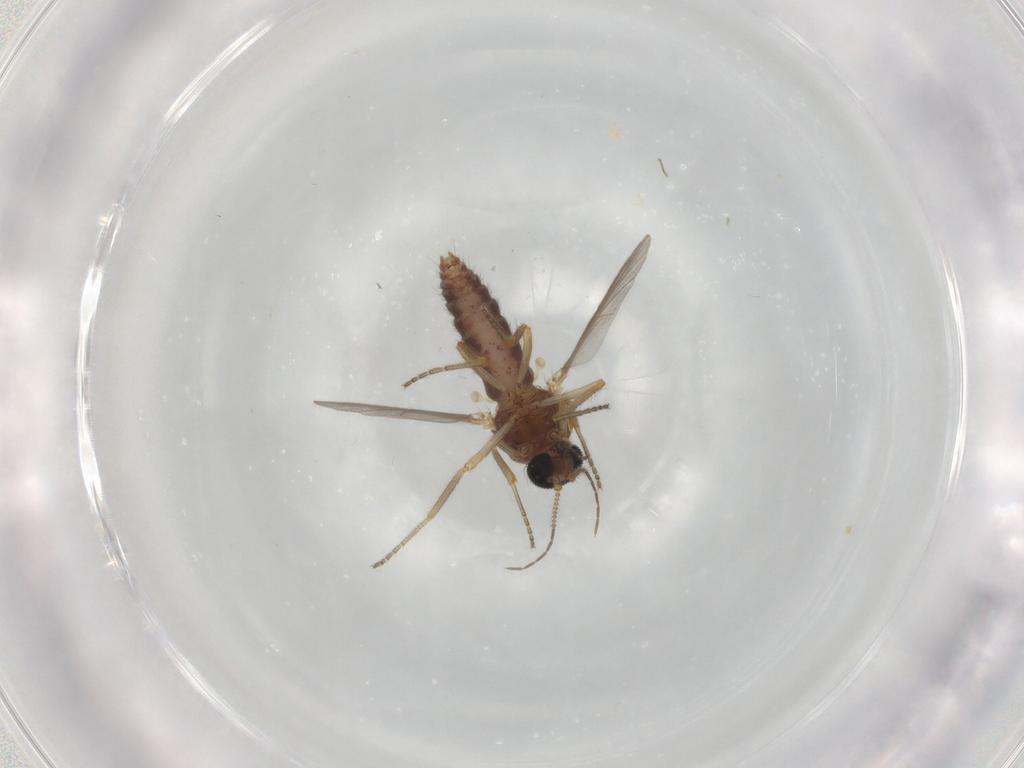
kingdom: Animalia
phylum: Arthropoda
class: Insecta
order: Diptera
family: Ceratopogonidae
